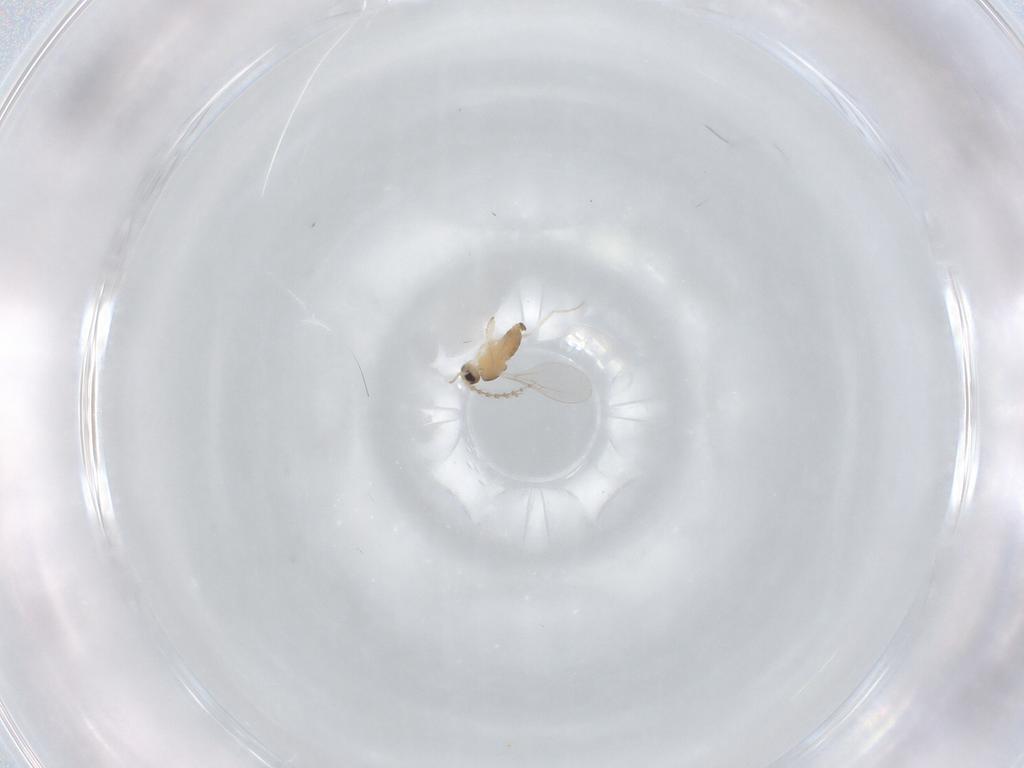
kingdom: Animalia
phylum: Arthropoda
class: Insecta
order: Diptera
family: Cecidomyiidae
